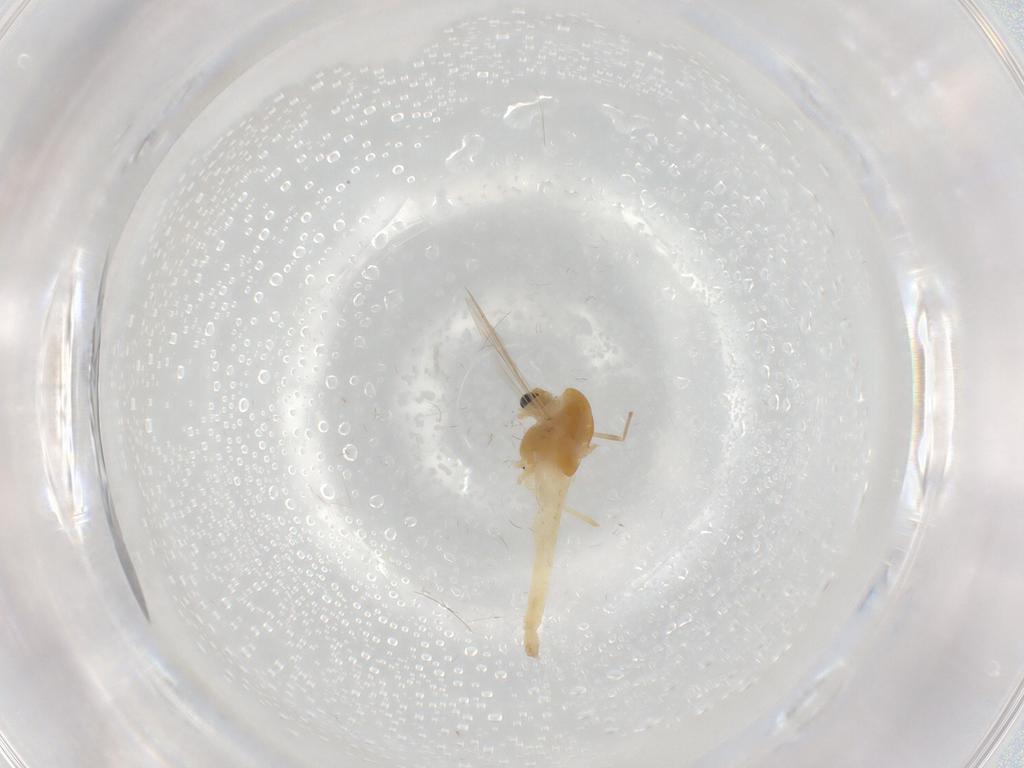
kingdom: Animalia
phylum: Arthropoda
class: Insecta
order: Diptera
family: Chironomidae
